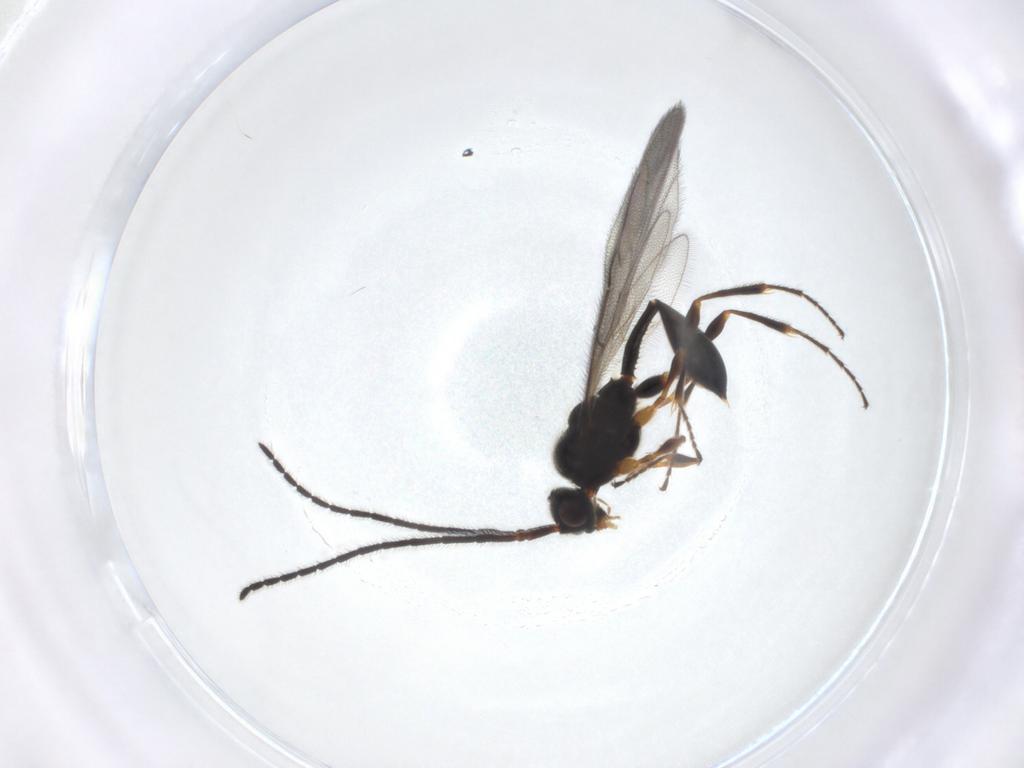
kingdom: Animalia
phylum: Arthropoda
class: Insecta
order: Hymenoptera
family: Diapriidae
